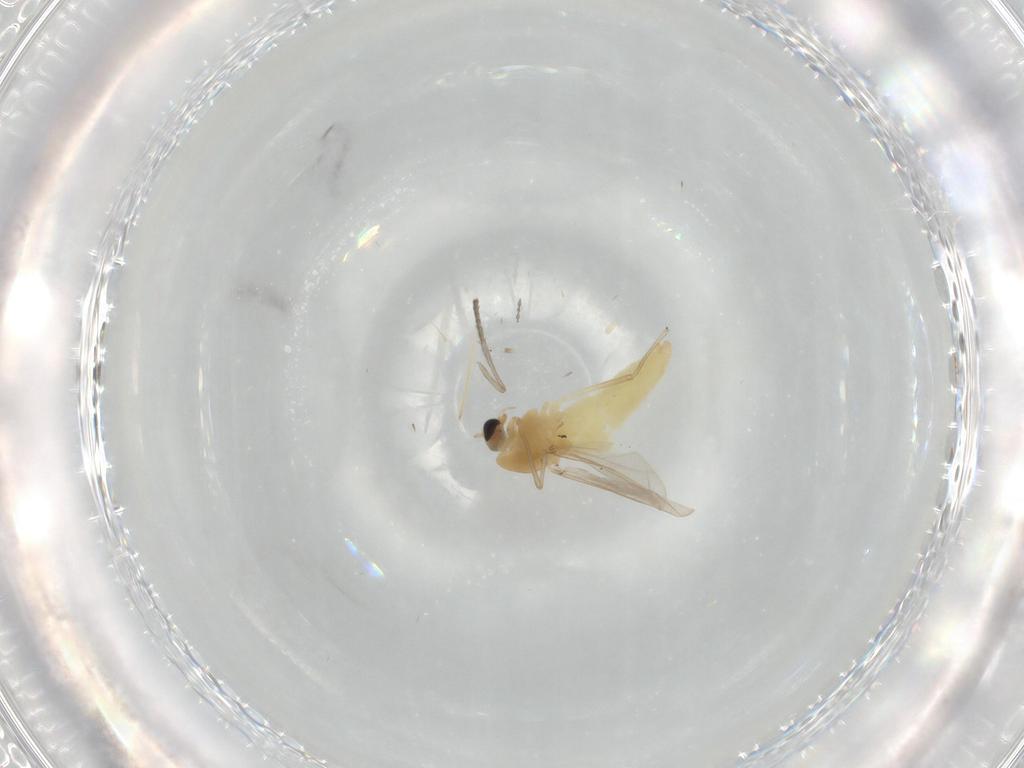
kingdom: Animalia
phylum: Arthropoda
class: Insecta
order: Diptera
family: Chironomidae
